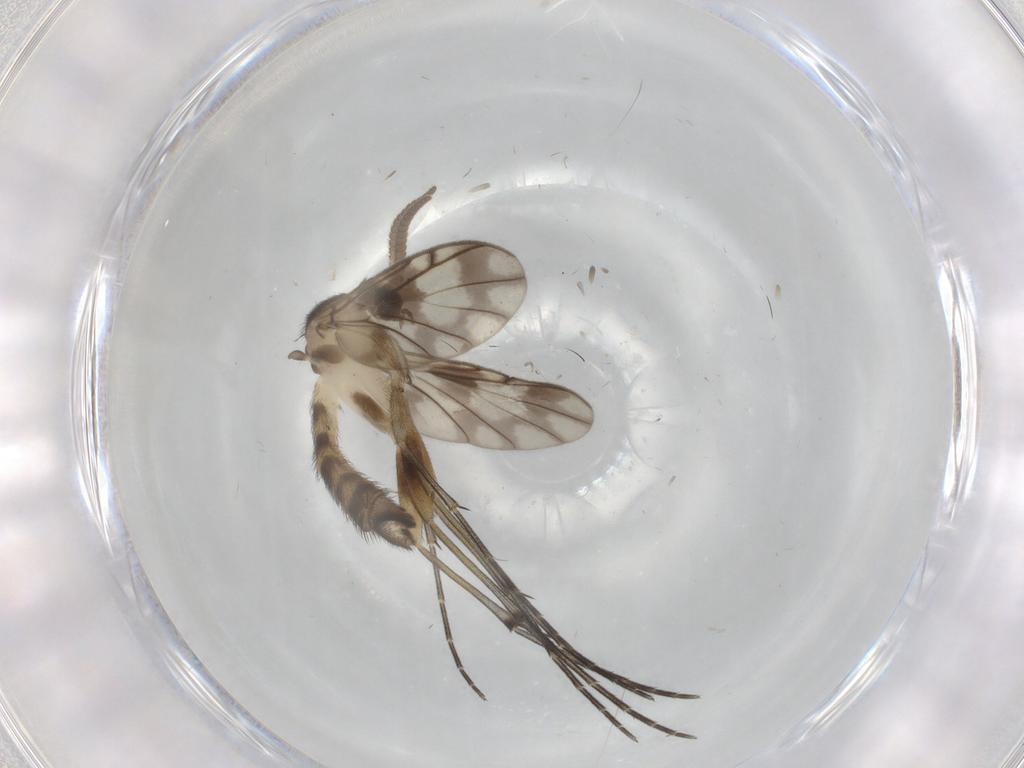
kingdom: Animalia
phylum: Arthropoda
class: Insecta
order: Diptera
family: Chironomidae
